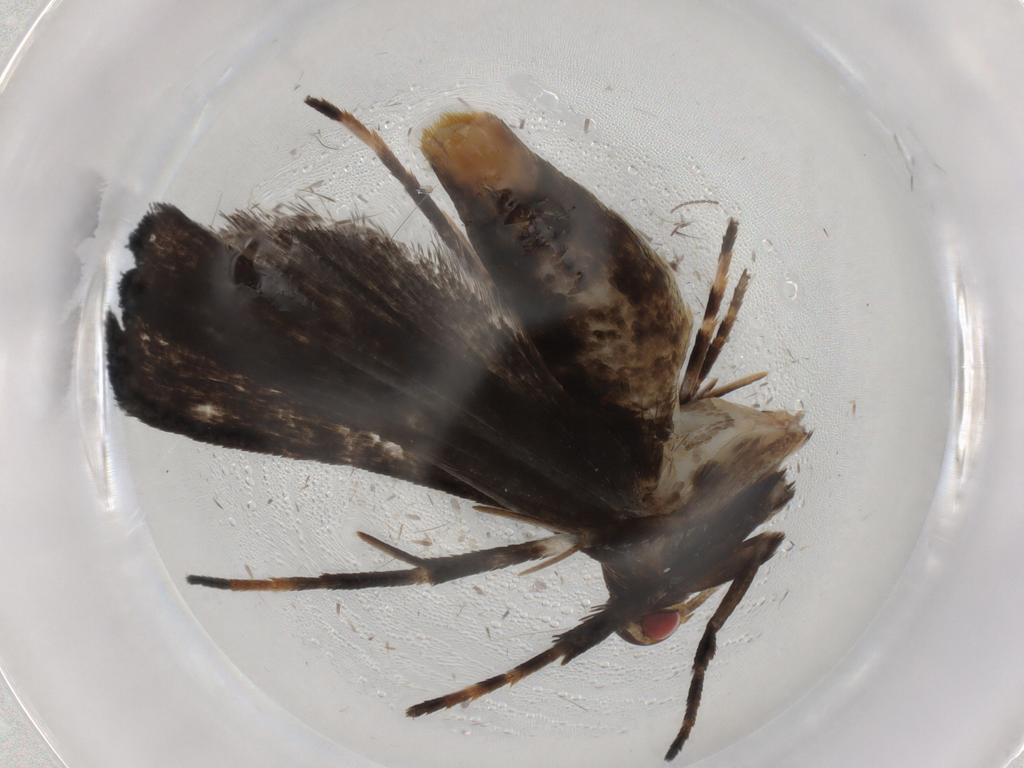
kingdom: Animalia
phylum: Arthropoda
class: Insecta
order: Lepidoptera
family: Gelechiidae
